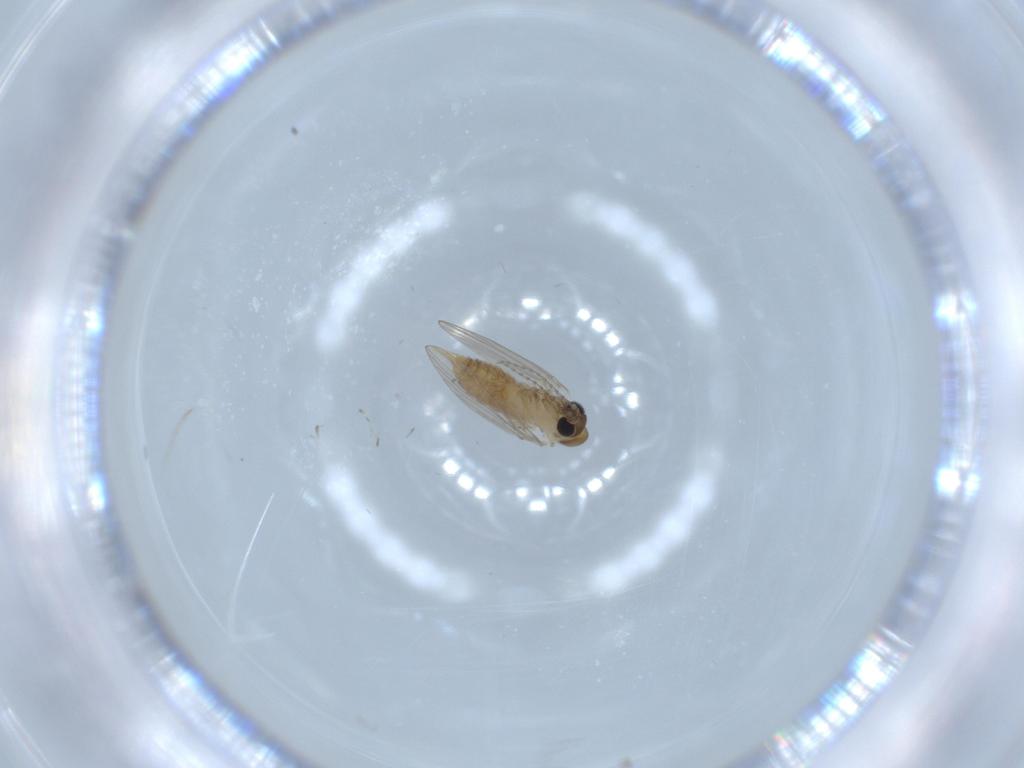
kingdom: Animalia
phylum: Arthropoda
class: Insecta
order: Diptera
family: Psychodidae
